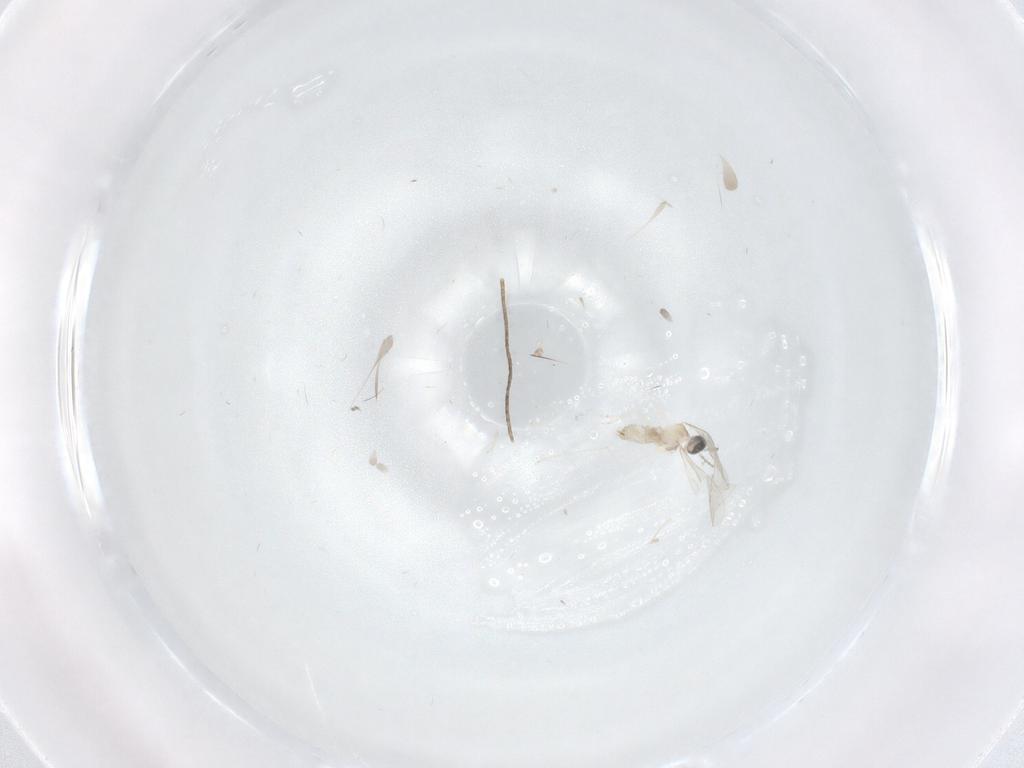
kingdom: Animalia
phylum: Arthropoda
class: Insecta
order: Diptera
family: Cecidomyiidae
